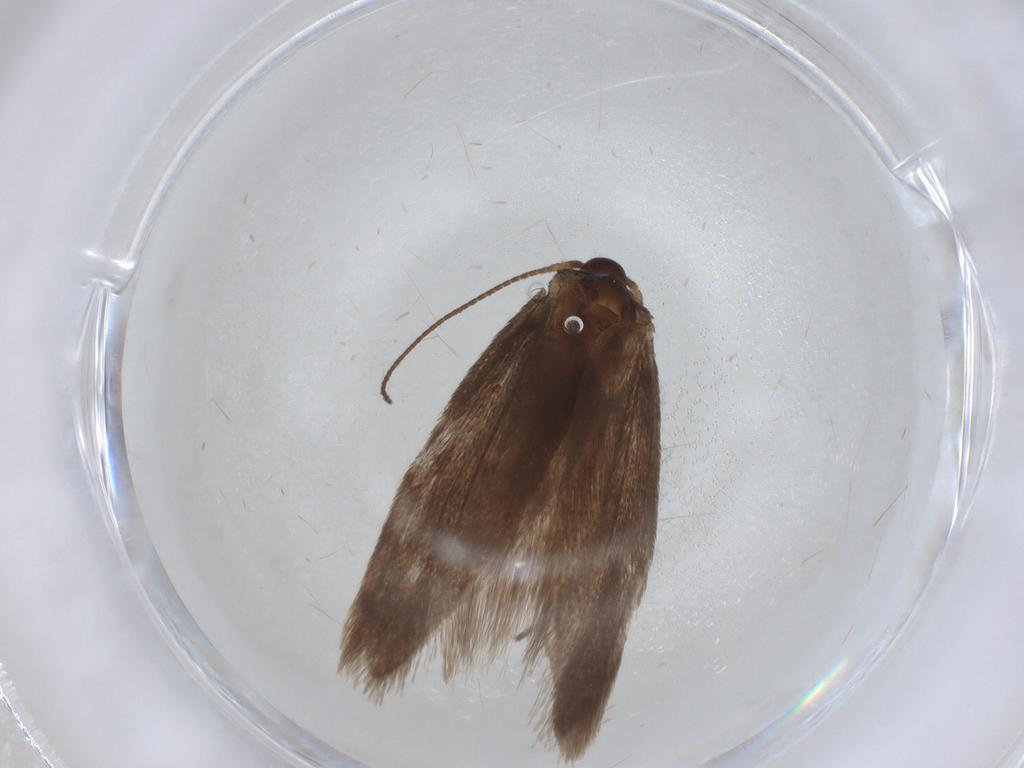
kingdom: Animalia
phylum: Arthropoda
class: Insecta
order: Lepidoptera
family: Limacodidae
